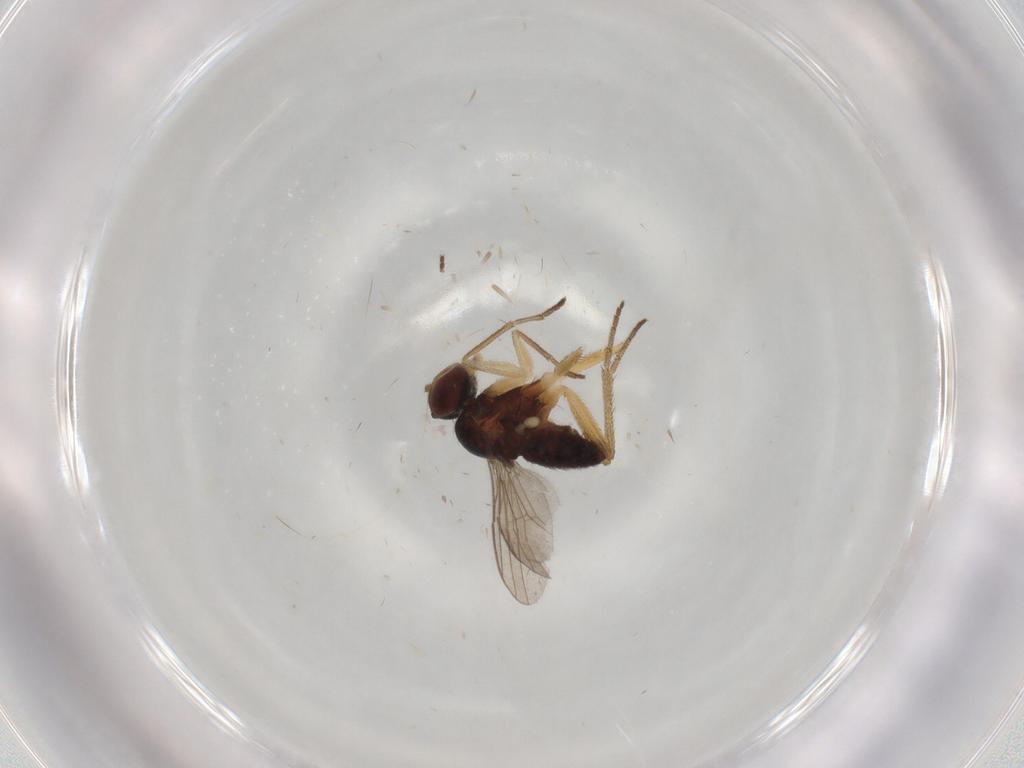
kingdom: Animalia
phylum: Arthropoda
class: Insecta
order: Diptera
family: Dolichopodidae
